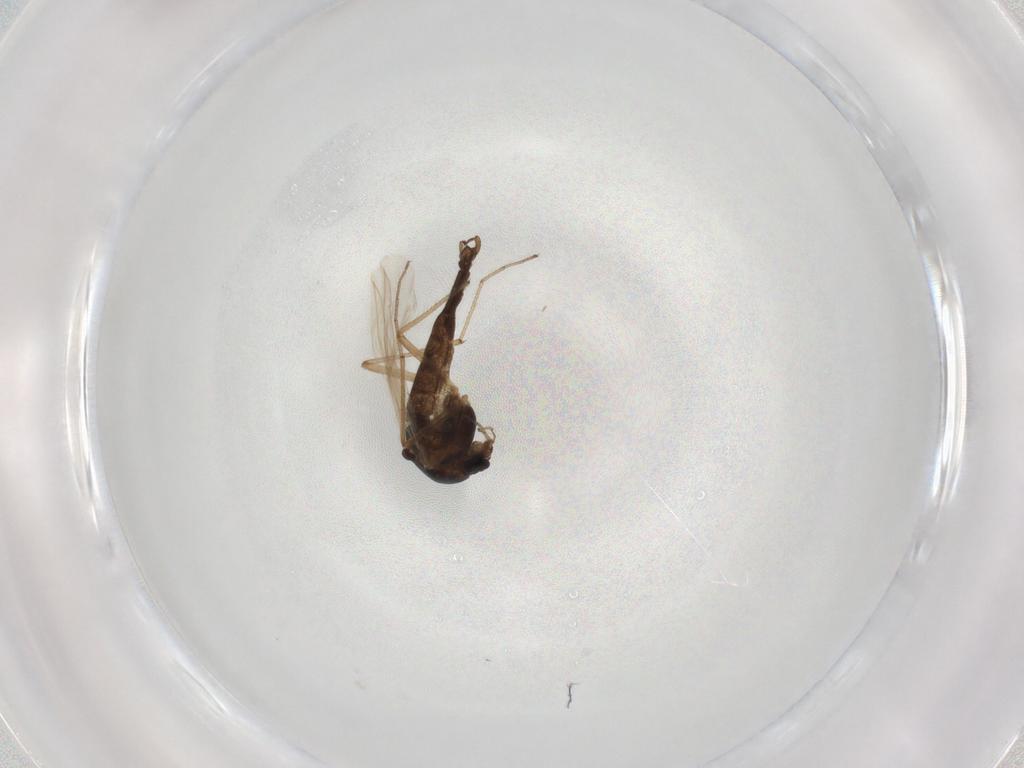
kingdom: Animalia
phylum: Arthropoda
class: Insecta
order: Diptera
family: Chironomidae
